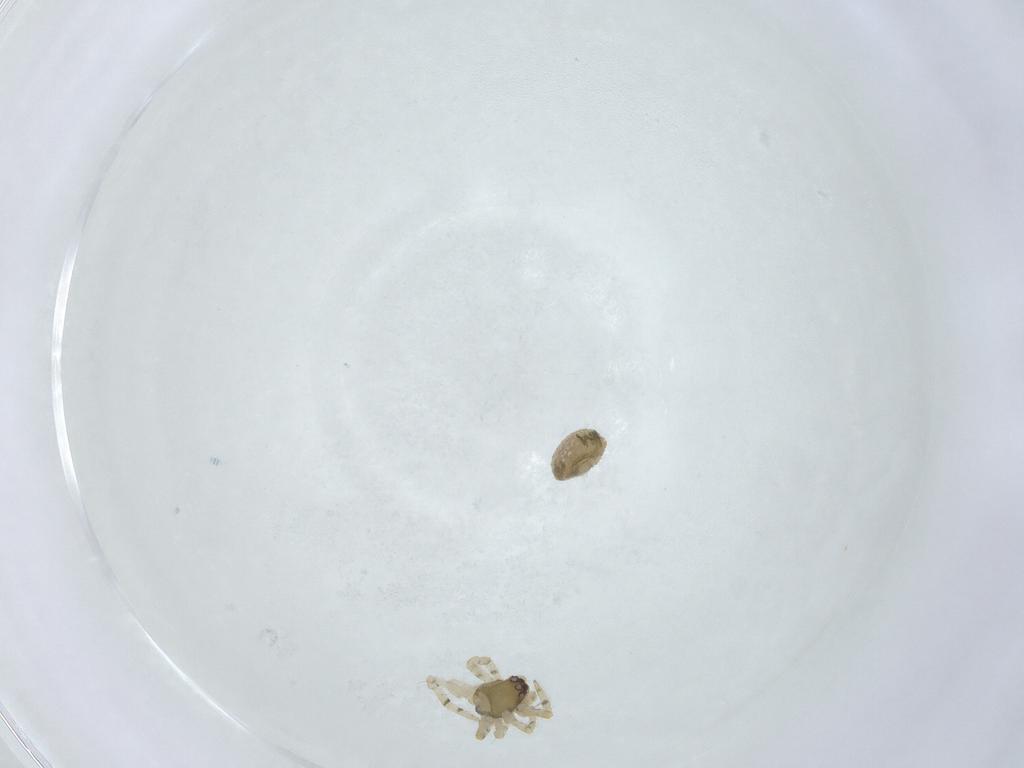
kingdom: Animalia
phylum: Arthropoda
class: Arachnida
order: Araneae
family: Theridiidae
